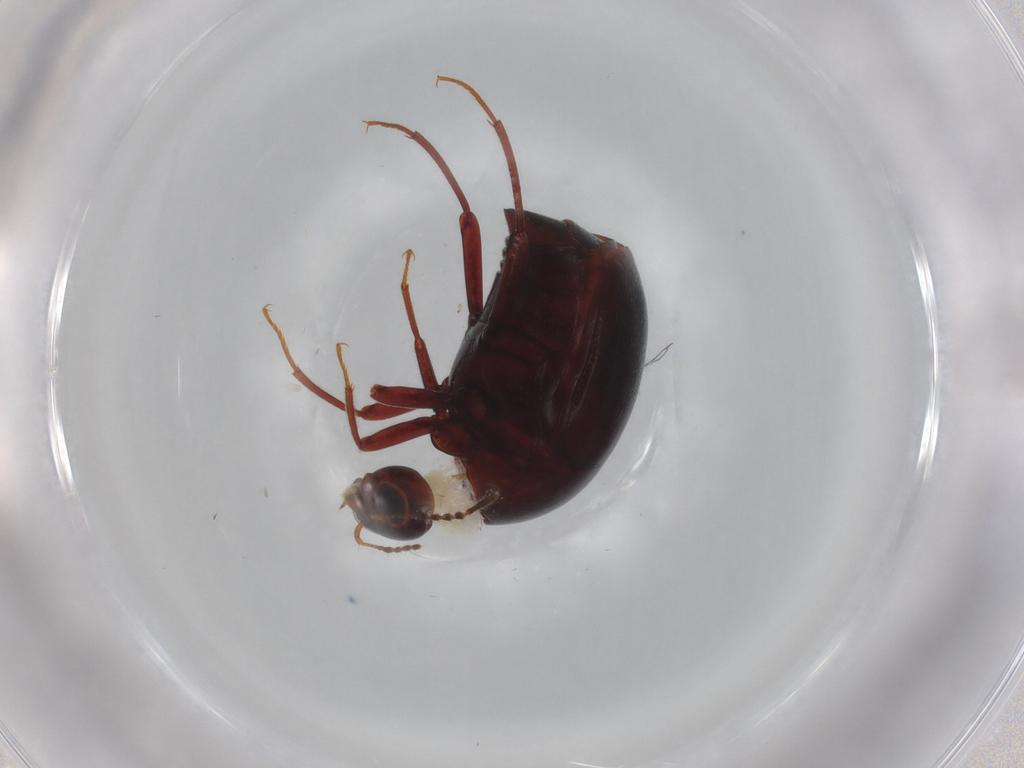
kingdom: Animalia
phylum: Arthropoda
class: Insecta
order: Coleoptera
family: Staphylinidae
